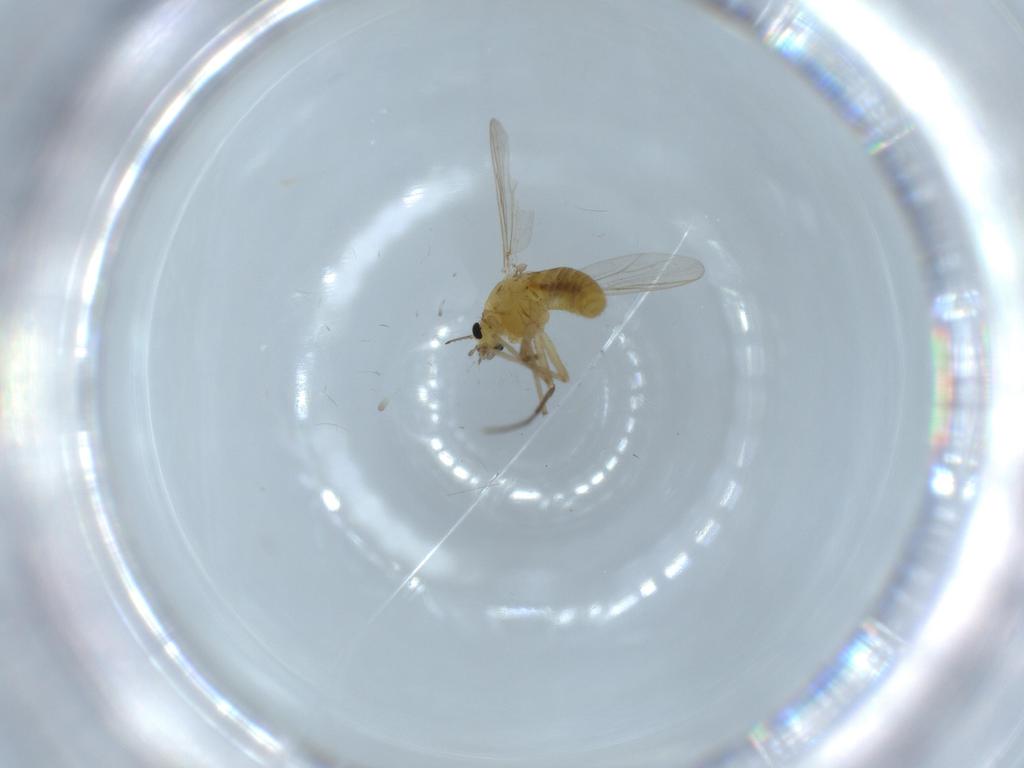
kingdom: Animalia
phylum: Arthropoda
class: Insecta
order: Diptera
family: Chironomidae
